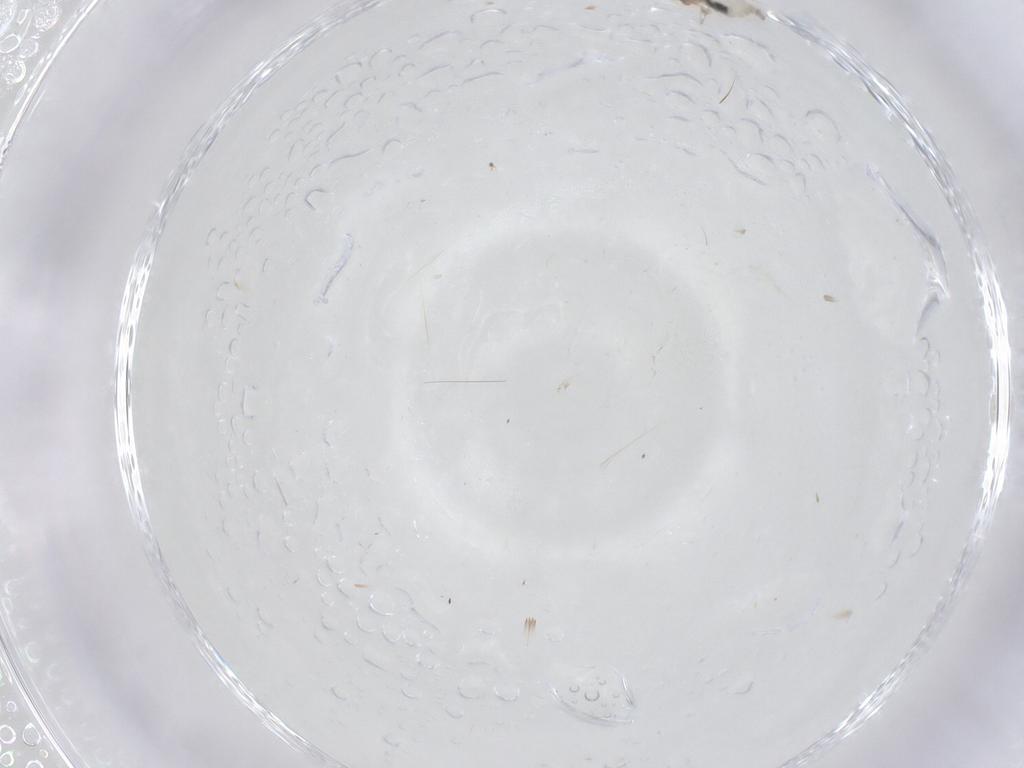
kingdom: Animalia
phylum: Arthropoda
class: Insecta
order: Diptera
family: Cecidomyiidae
